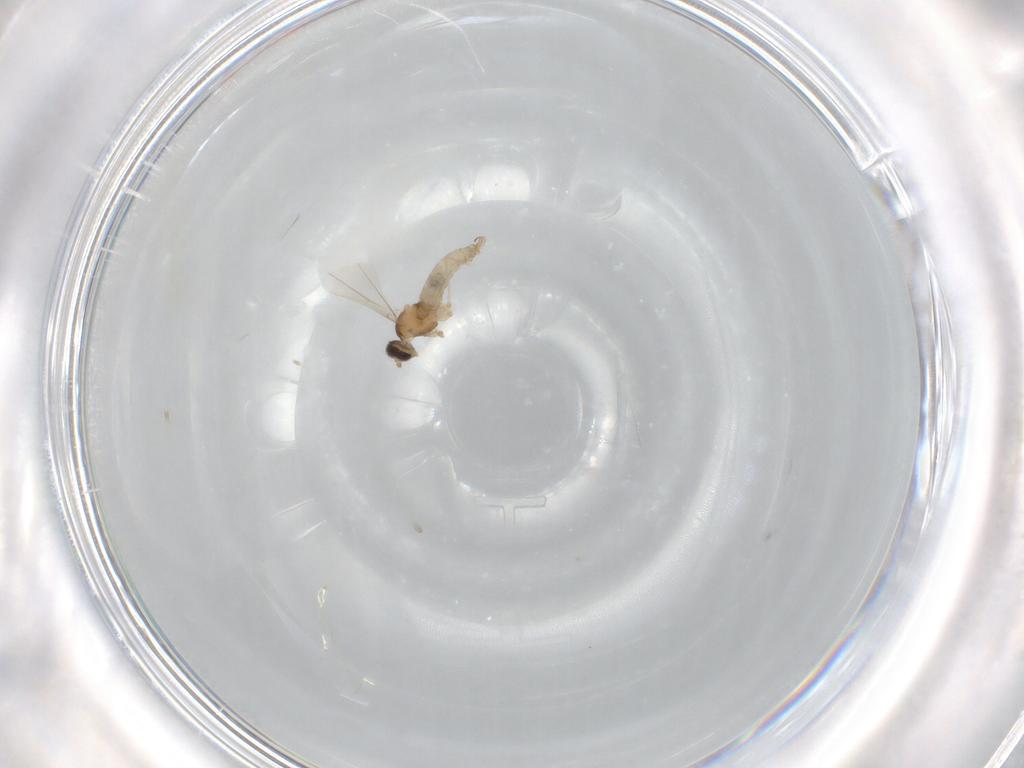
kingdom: Animalia
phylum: Arthropoda
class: Insecta
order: Diptera
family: Cecidomyiidae
